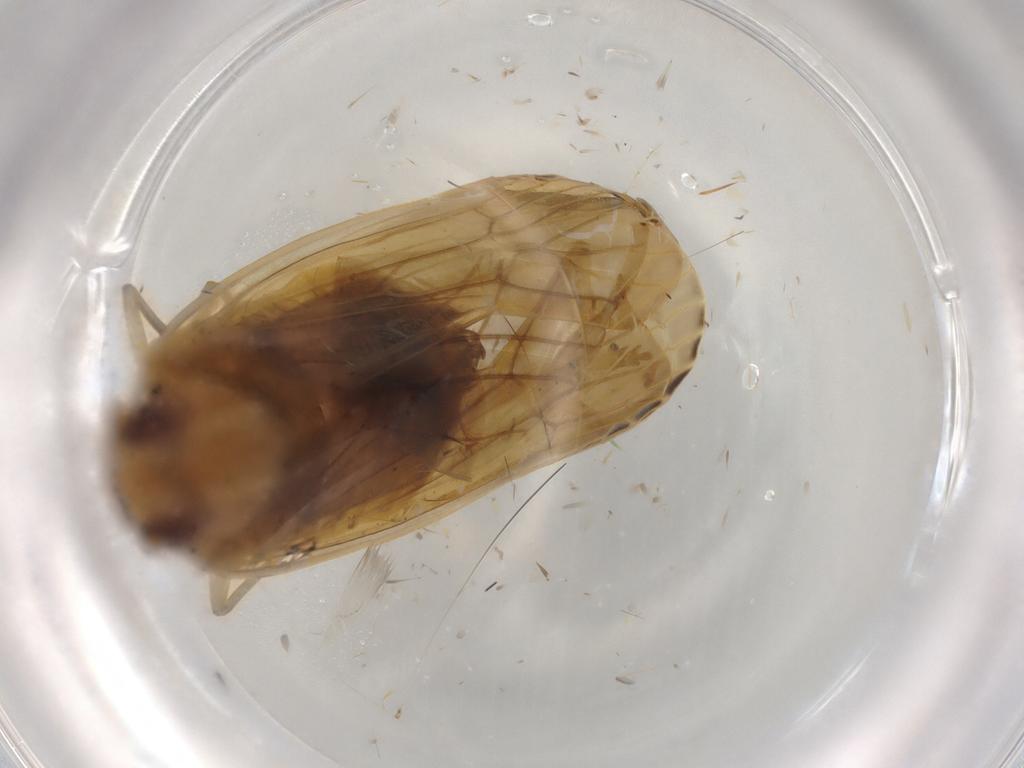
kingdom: Animalia
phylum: Arthropoda
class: Insecta
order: Hemiptera
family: Achilidae
